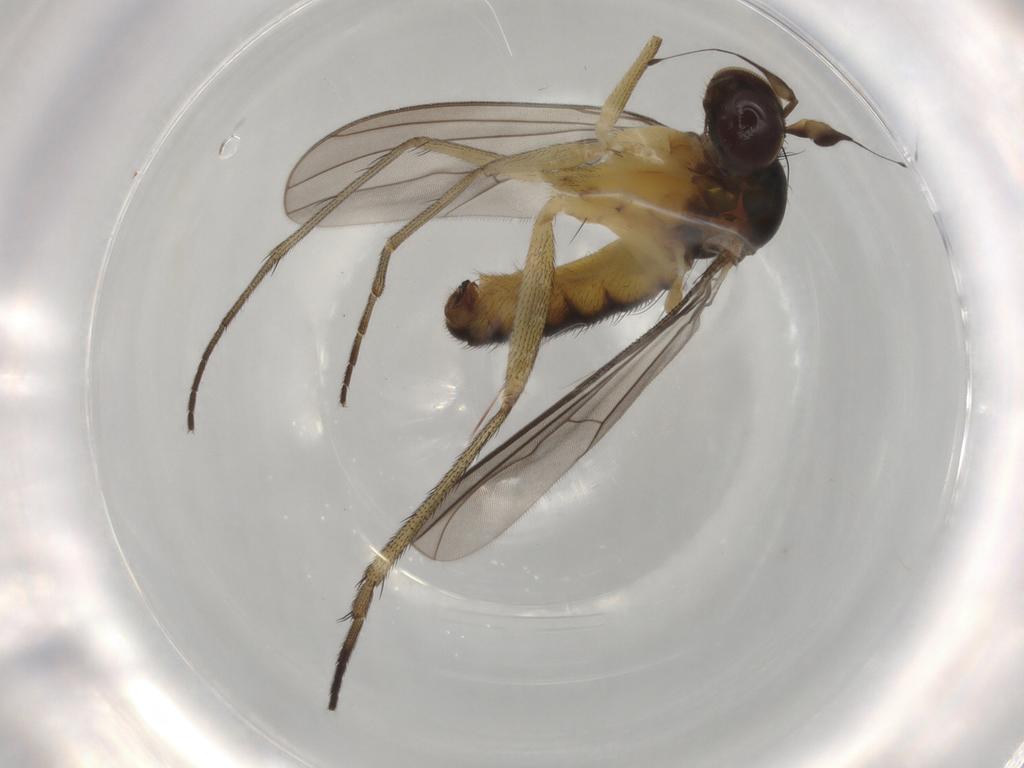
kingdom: Animalia
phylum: Arthropoda
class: Insecta
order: Diptera
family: Dolichopodidae
